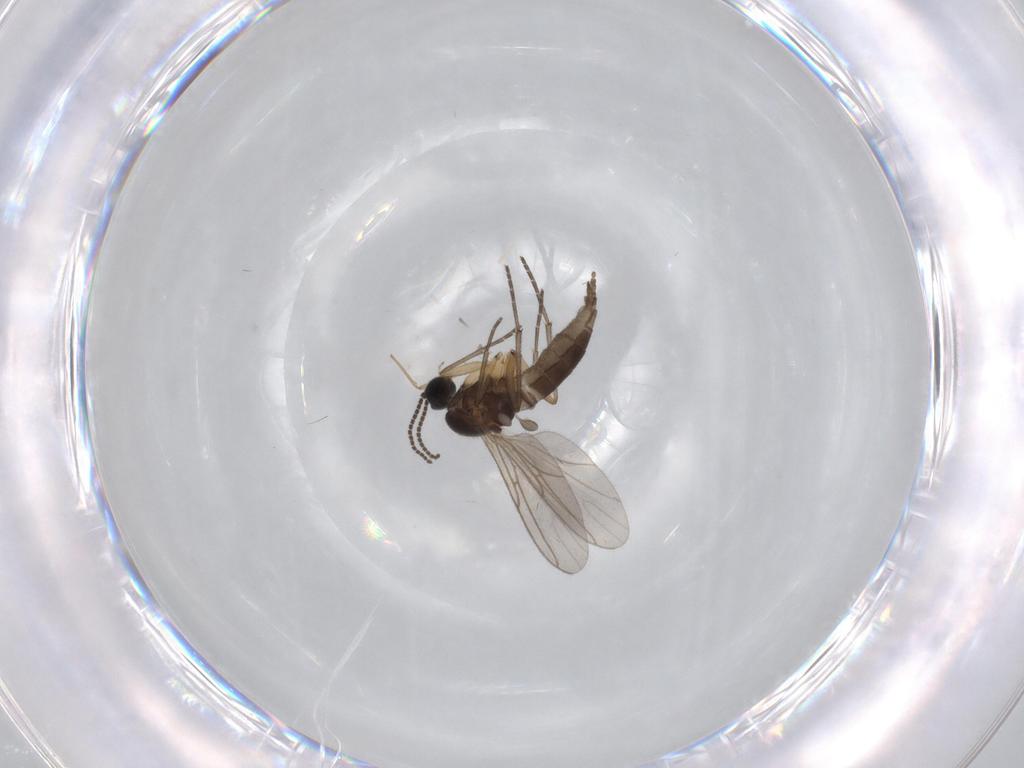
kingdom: Animalia
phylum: Arthropoda
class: Insecta
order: Diptera
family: Sciaridae
